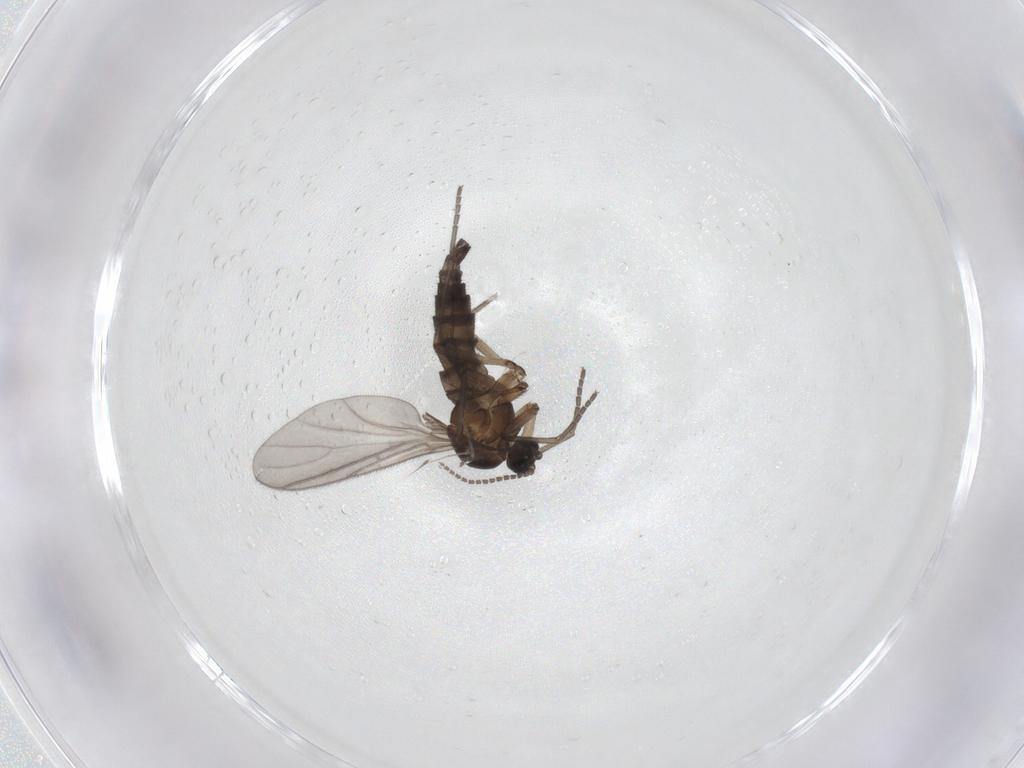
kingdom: Animalia
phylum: Arthropoda
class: Insecta
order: Diptera
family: Sciaridae
